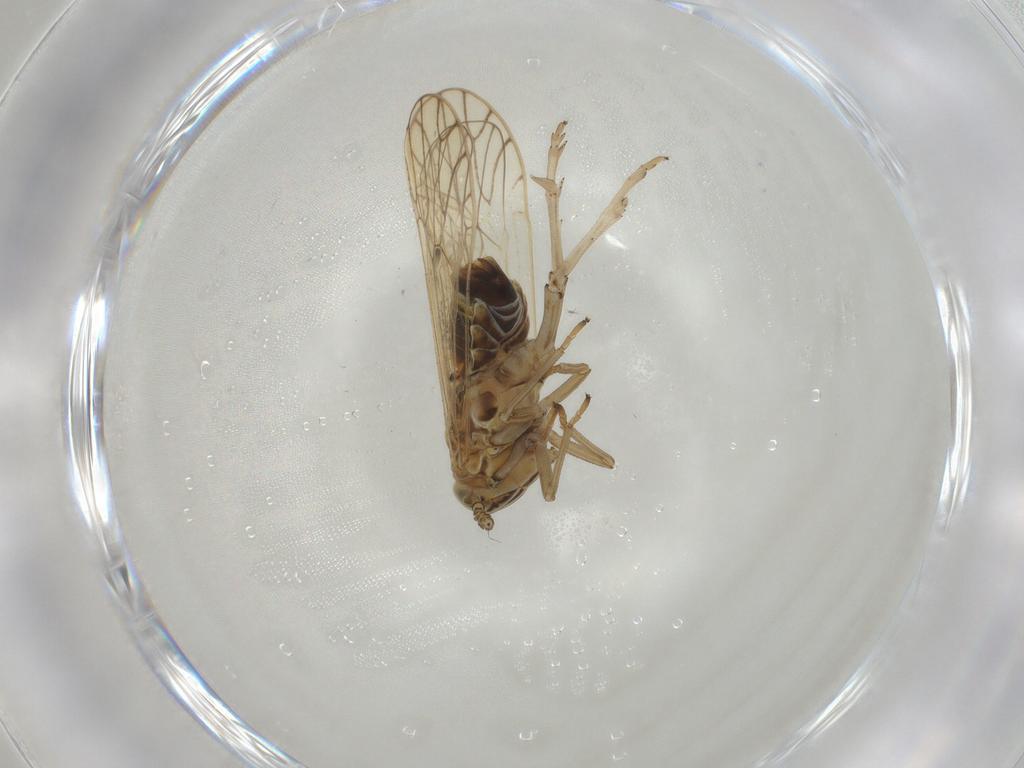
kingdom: Animalia
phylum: Arthropoda
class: Insecta
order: Hemiptera
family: Delphacidae
